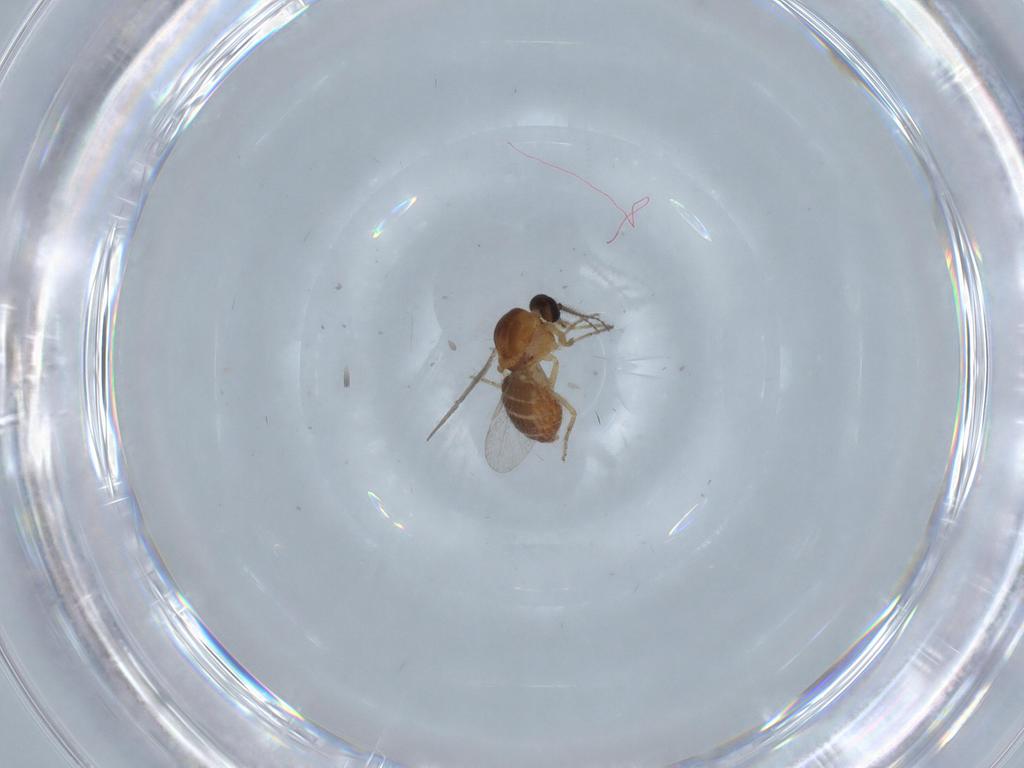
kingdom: Animalia
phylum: Arthropoda
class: Insecta
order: Diptera
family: Ceratopogonidae
